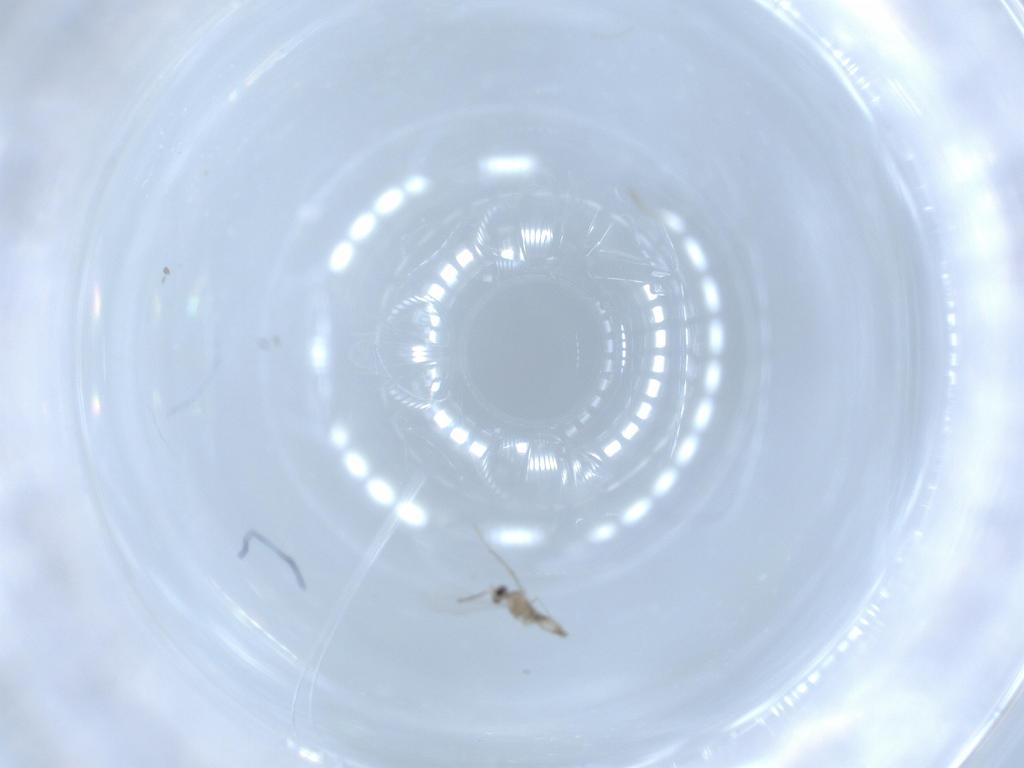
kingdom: Animalia
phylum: Arthropoda
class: Insecta
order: Diptera
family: Cecidomyiidae
